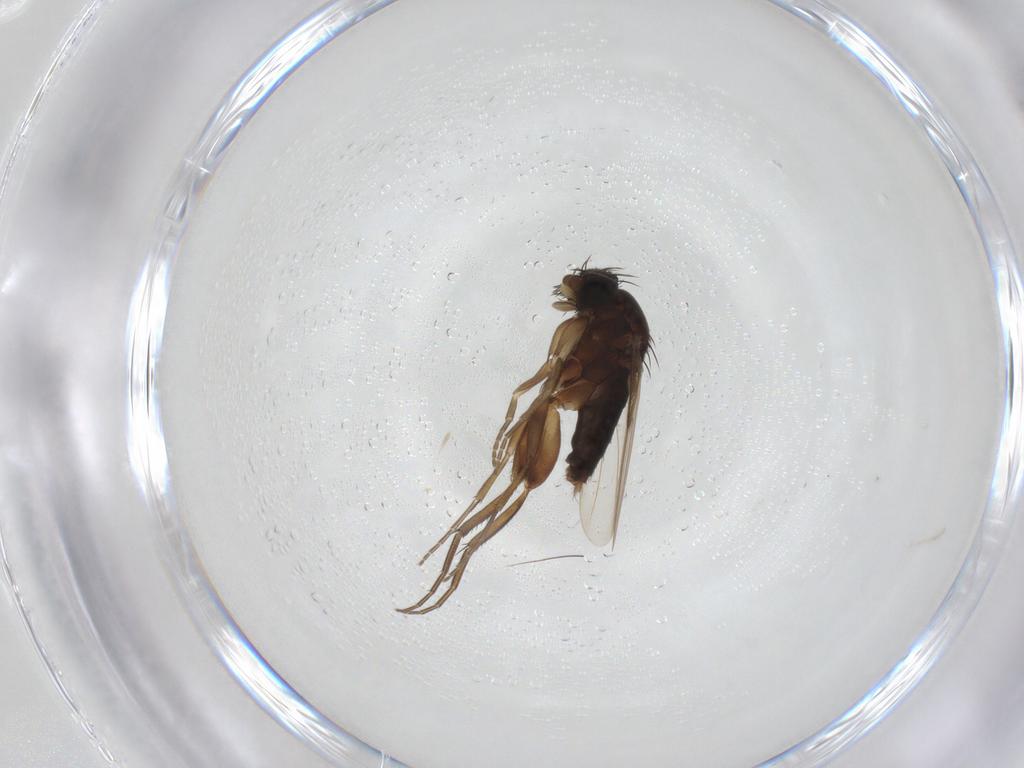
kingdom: Animalia
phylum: Arthropoda
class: Insecta
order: Diptera
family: Phoridae
